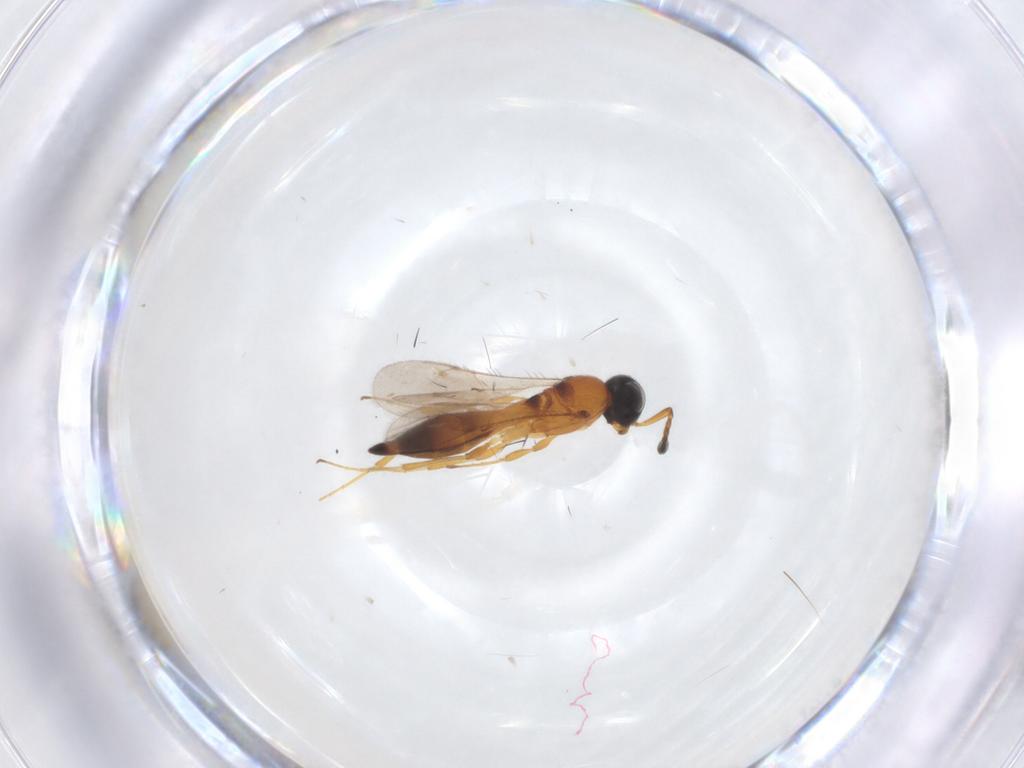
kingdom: Animalia
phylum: Arthropoda
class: Insecta
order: Hymenoptera
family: Scelionidae
